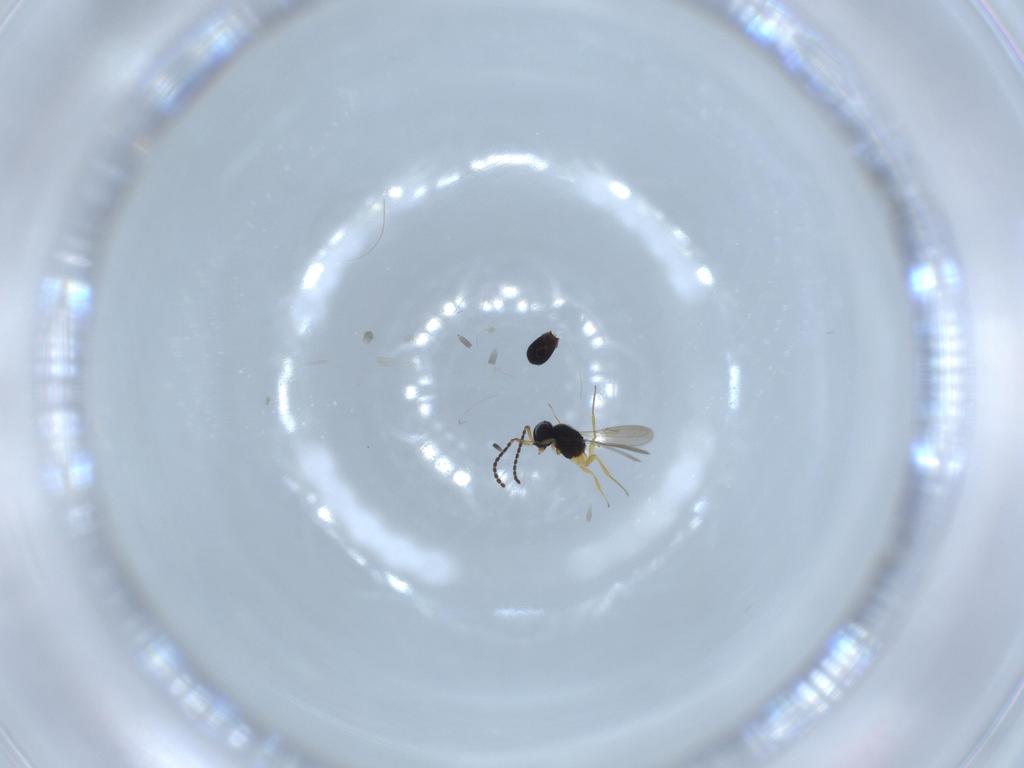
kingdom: Animalia
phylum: Arthropoda
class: Insecta
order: Hymenoptera
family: Scelionidae
